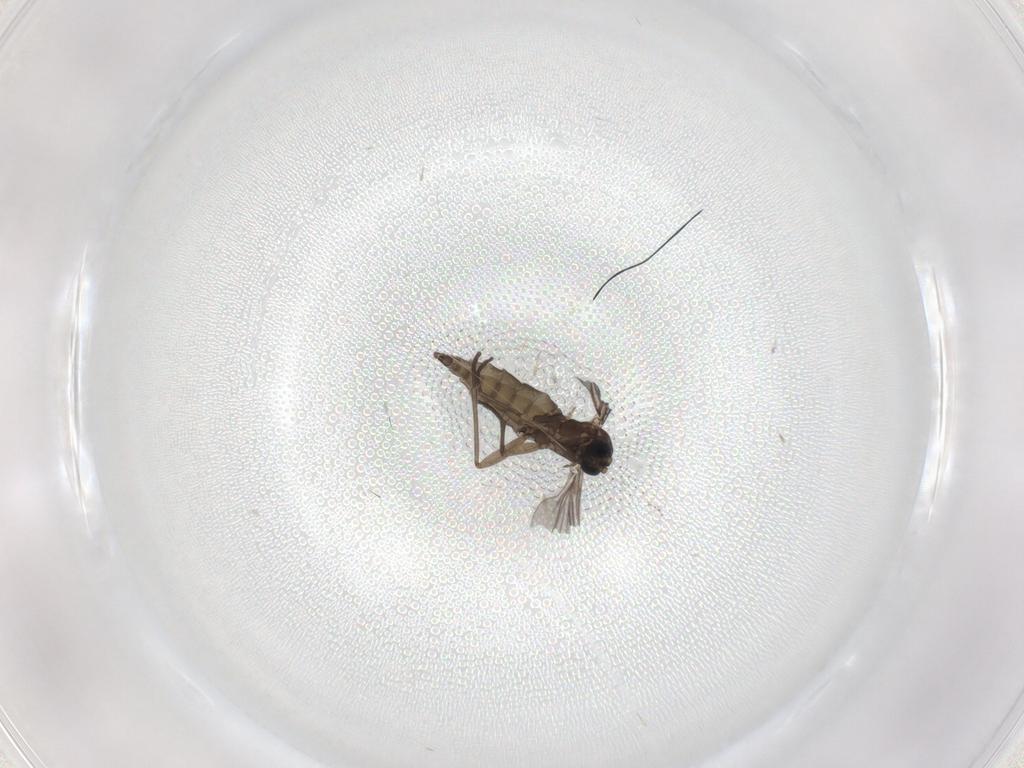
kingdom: Animalia
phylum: Arthropoda
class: Insecta
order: Diptera
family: Sciaridae
